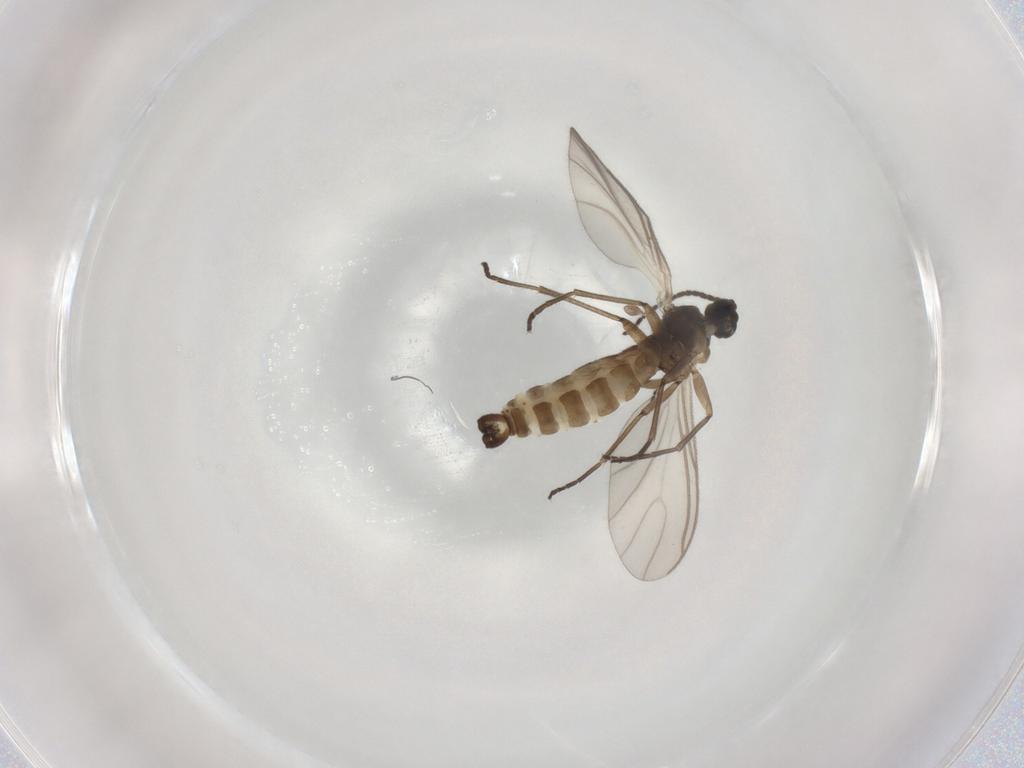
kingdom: Animalia
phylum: Arthropoda
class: Insecta
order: Diptera
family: Sciaridae
